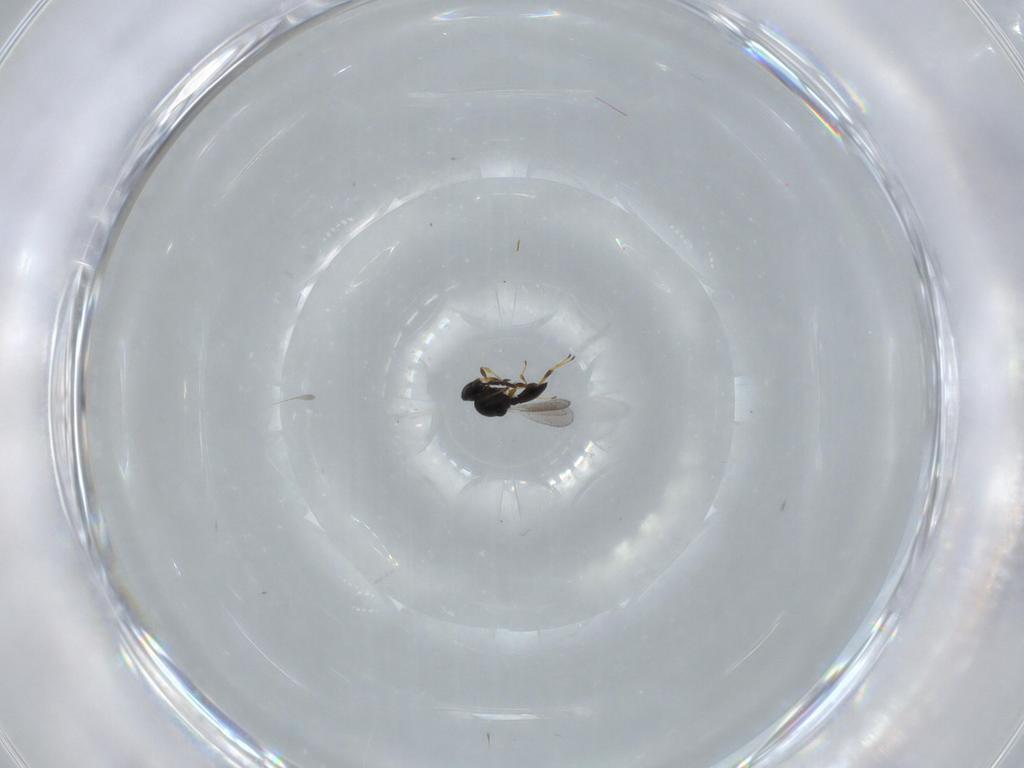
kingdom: Animalia
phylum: Arthropoda
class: Insecta
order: Hymenoptera
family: Platygastridae
